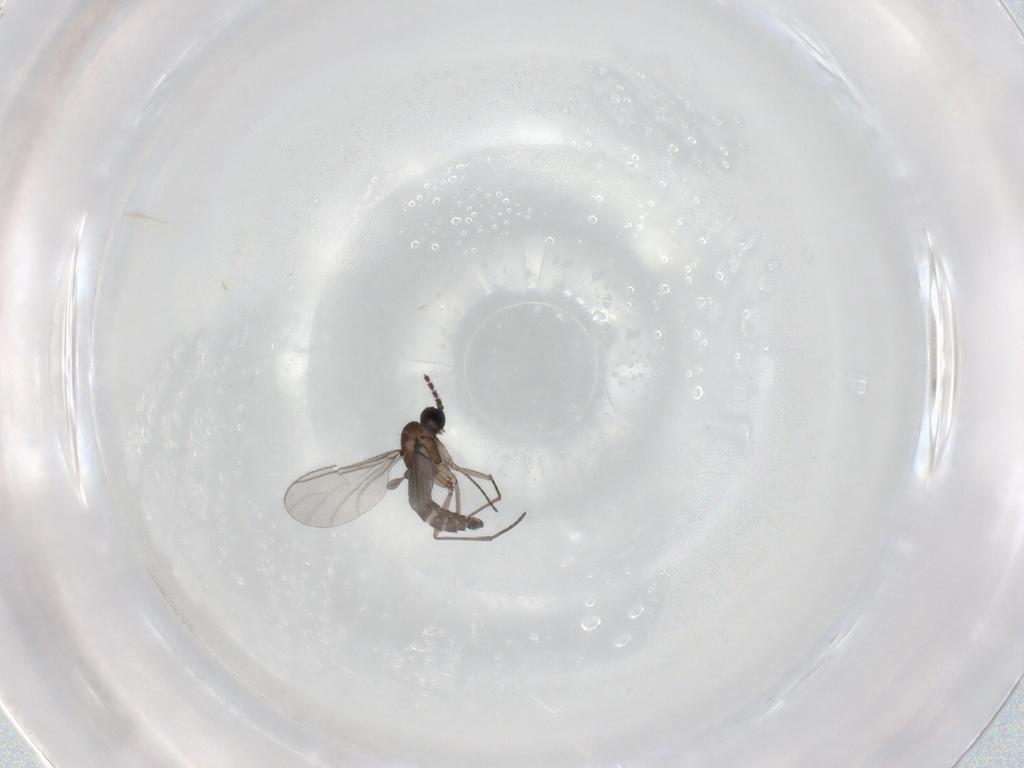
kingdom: Animalia
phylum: Arthropoda
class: Insecta
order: Diptera
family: Sciaridae
